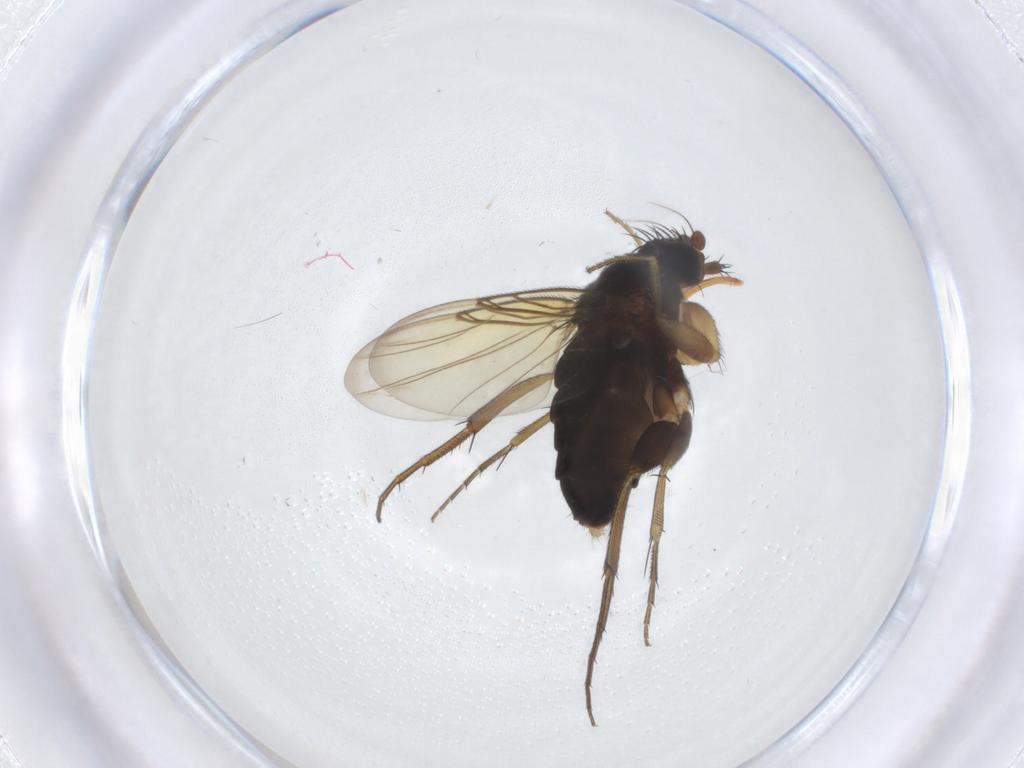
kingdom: Animalia
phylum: Arthropoda
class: Insecta
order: Diptera
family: Phoridae
